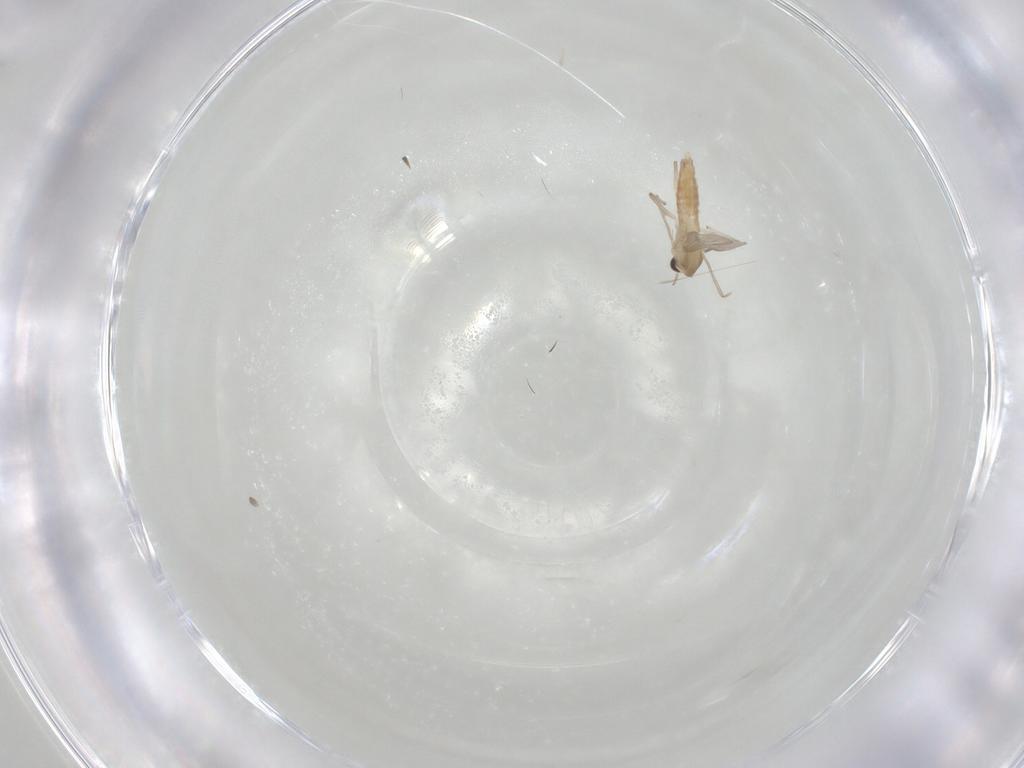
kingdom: Animalia
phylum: Arthropoda
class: Insecta
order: Diptera
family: Chironomidae
